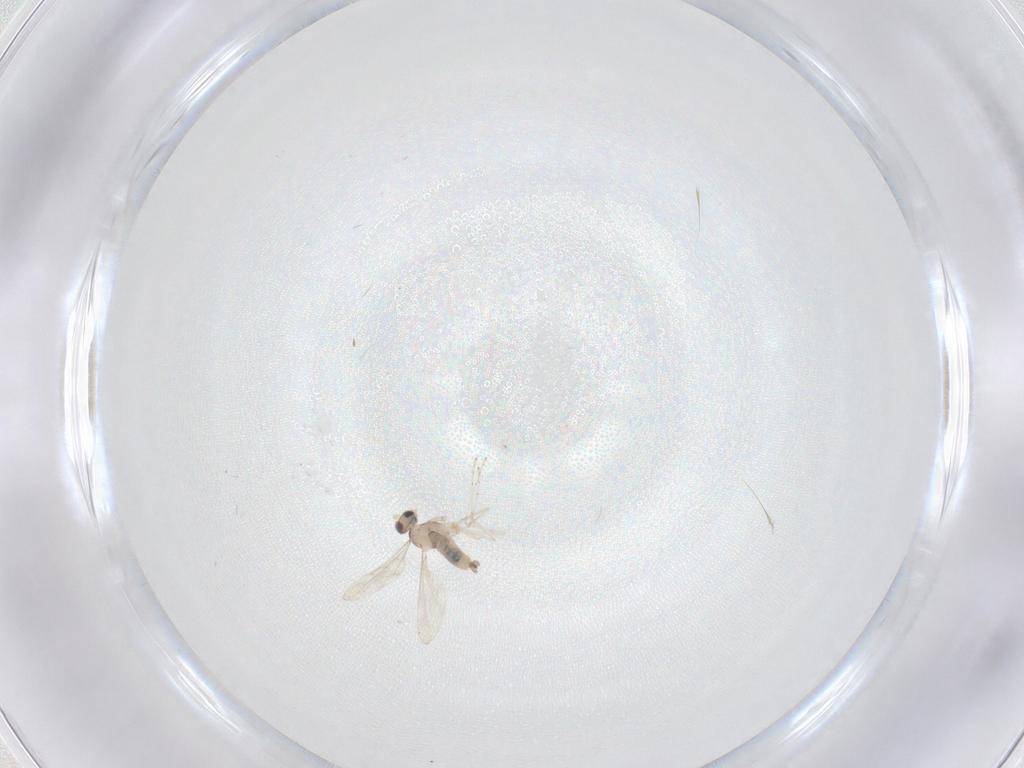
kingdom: Animalia
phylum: Arthropoda
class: Insecta
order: Diptera
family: Cecidomyiidae
